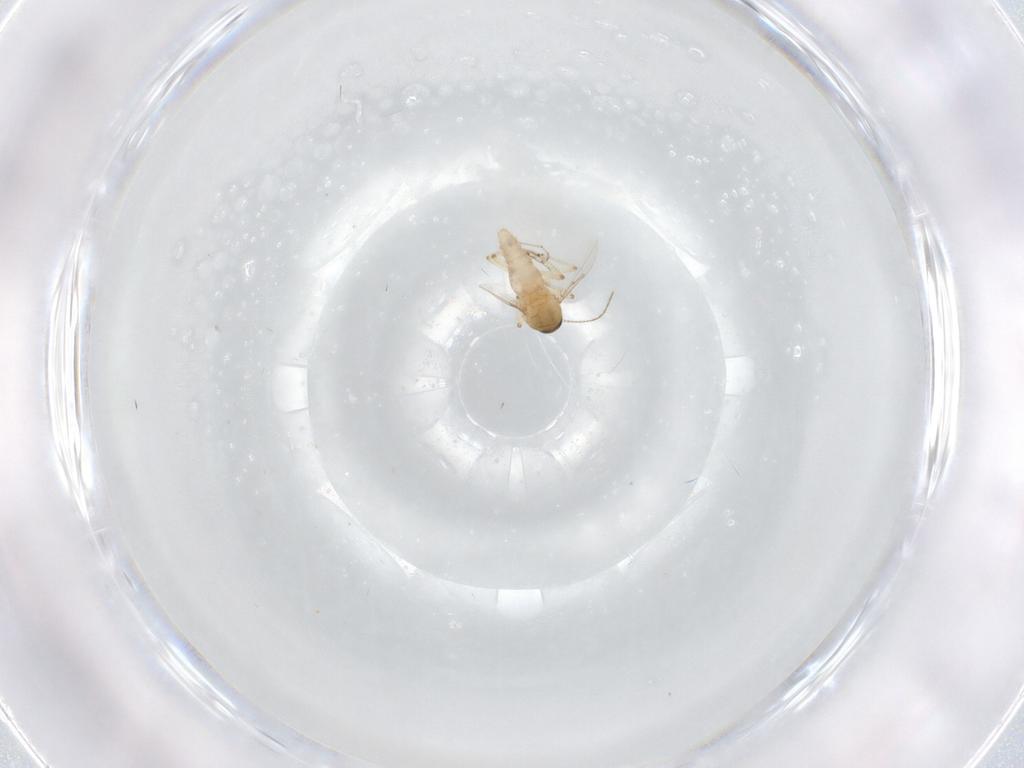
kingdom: Animalia
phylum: Arthropoda
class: Insecta
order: Diptera
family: Ceratopogonidae
